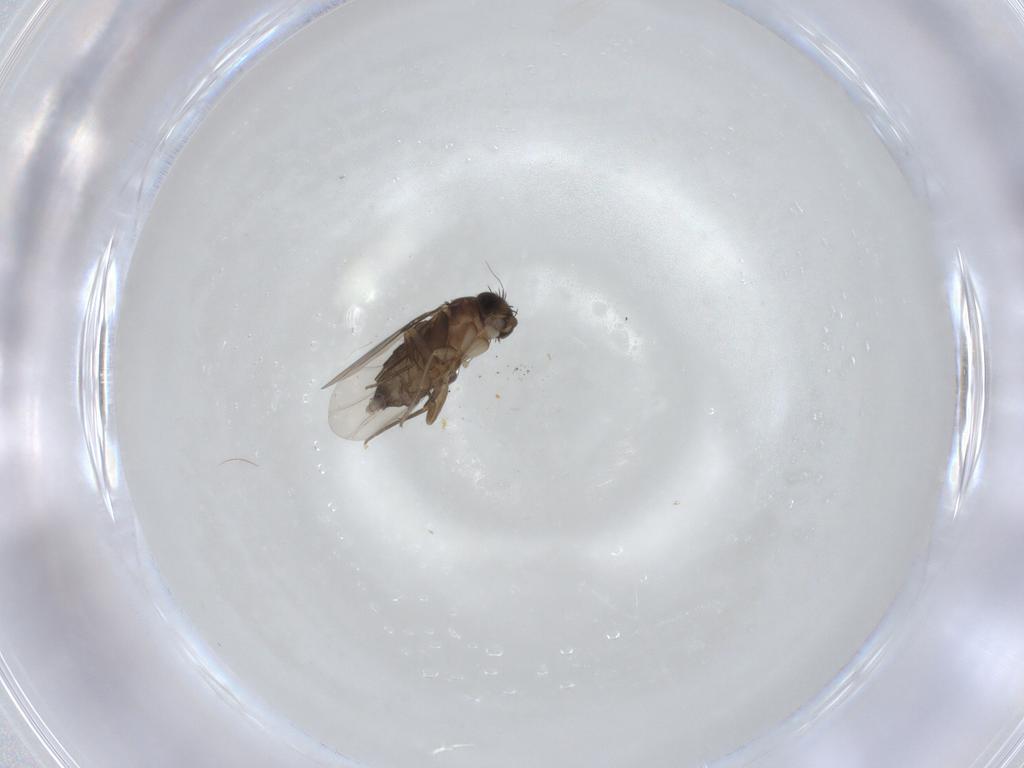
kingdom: Animalia
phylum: Arthropoda
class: Insecta
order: Diptera
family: Phoridae
